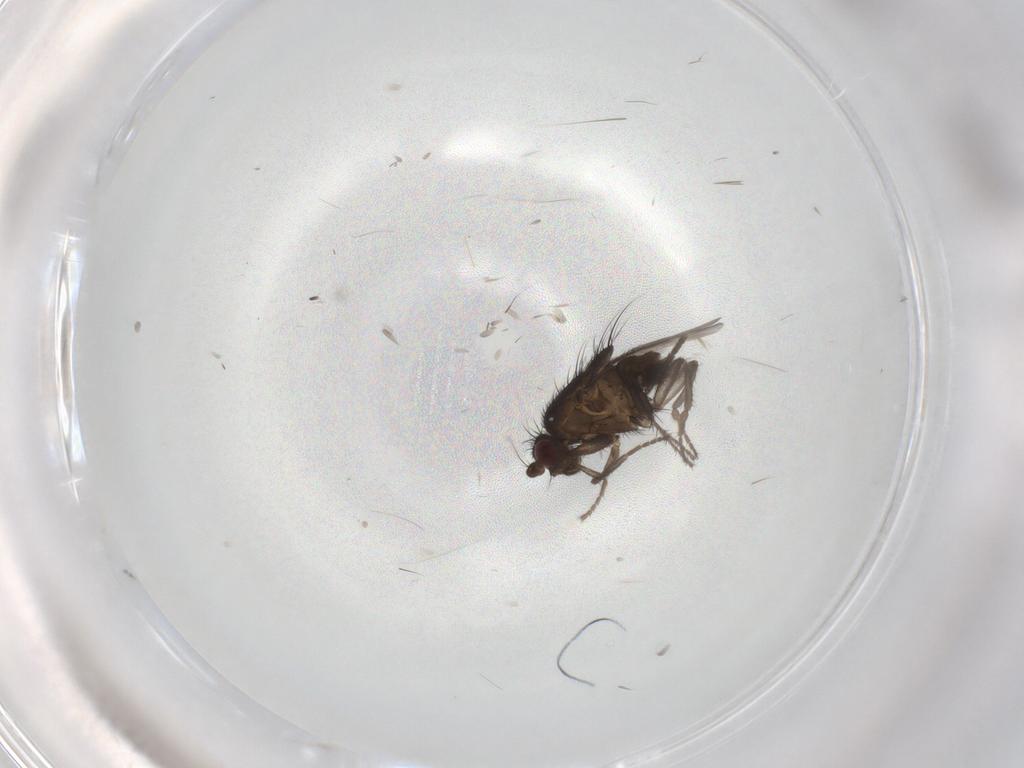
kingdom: Animalia
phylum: Arthropoda
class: Insecta
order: Diptera
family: Sphaeroceridae
